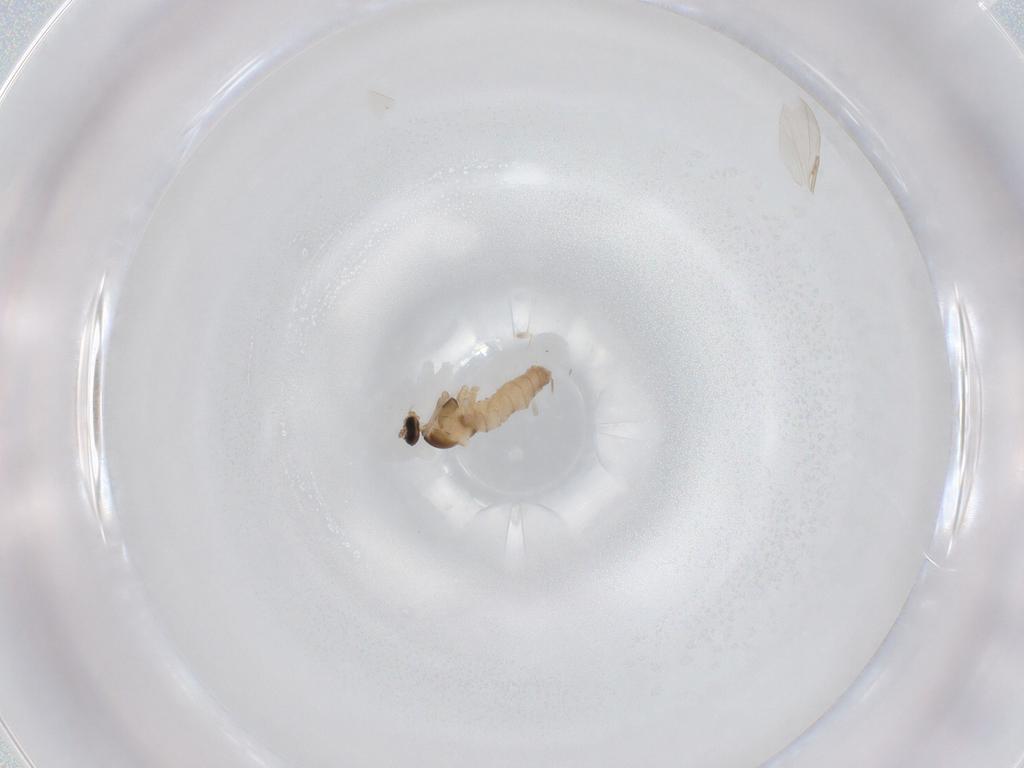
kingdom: Animalia
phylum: Arthropoda
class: Insecta
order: Diptera
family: Cecidomyiidae
